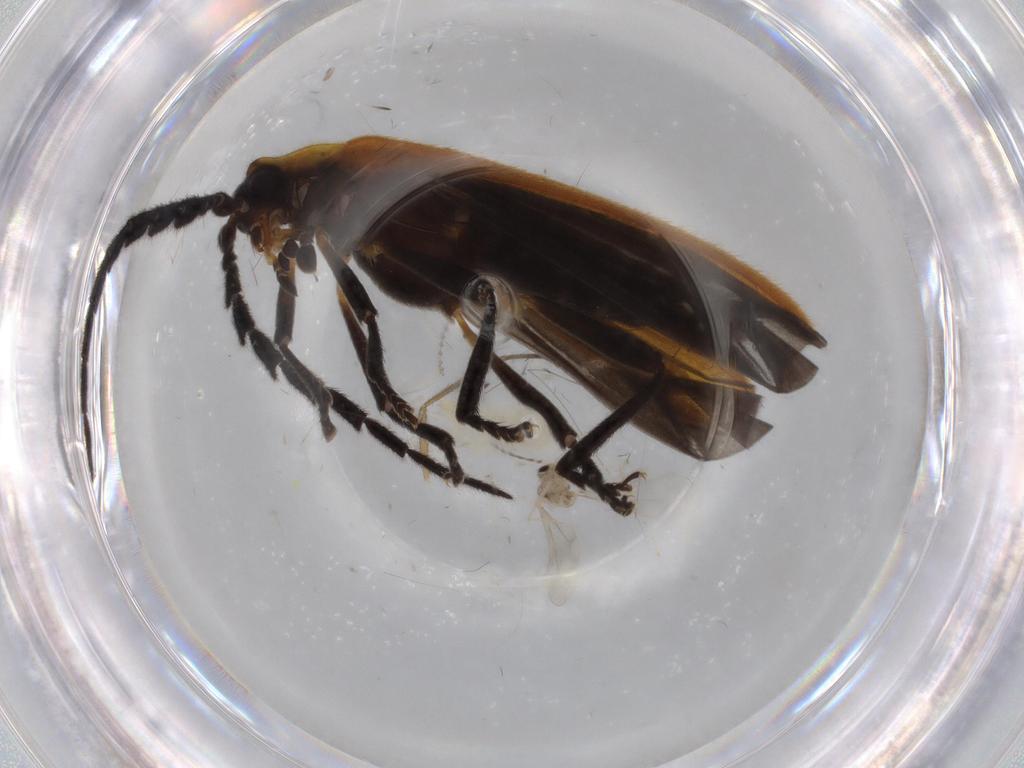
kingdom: Animalia
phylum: Arthropoda
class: Insecta
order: Coleoptera
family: Lycidae
